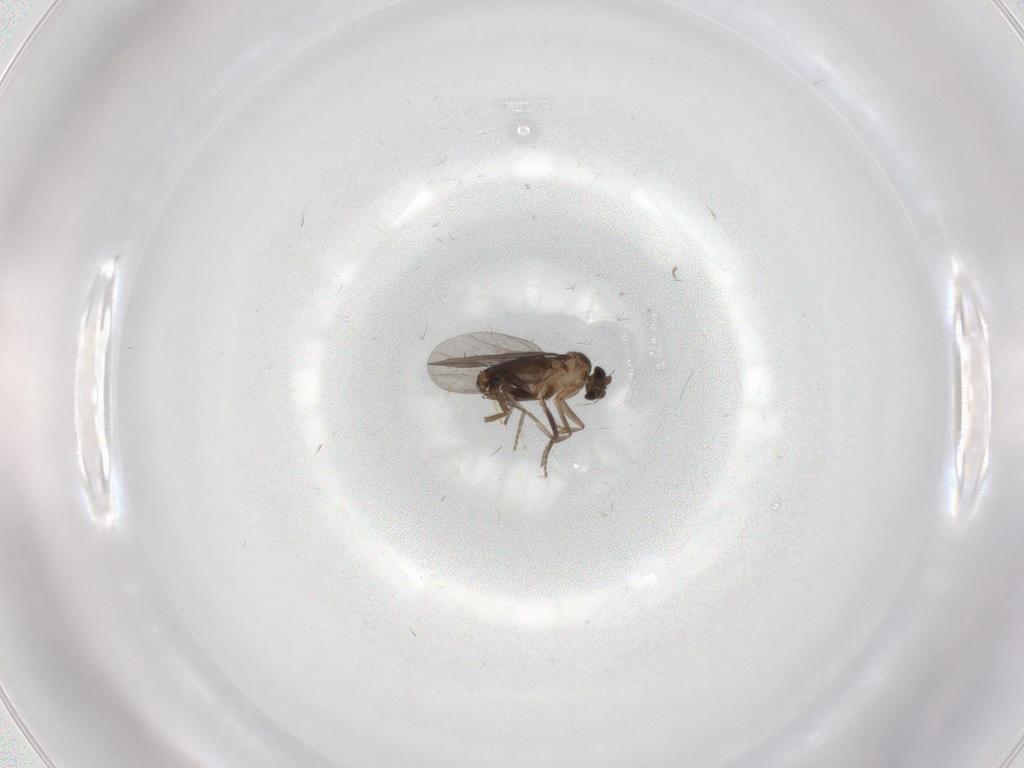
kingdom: Animalia
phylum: Arthropoda
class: Insecta
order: Diptera
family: Phoridae
